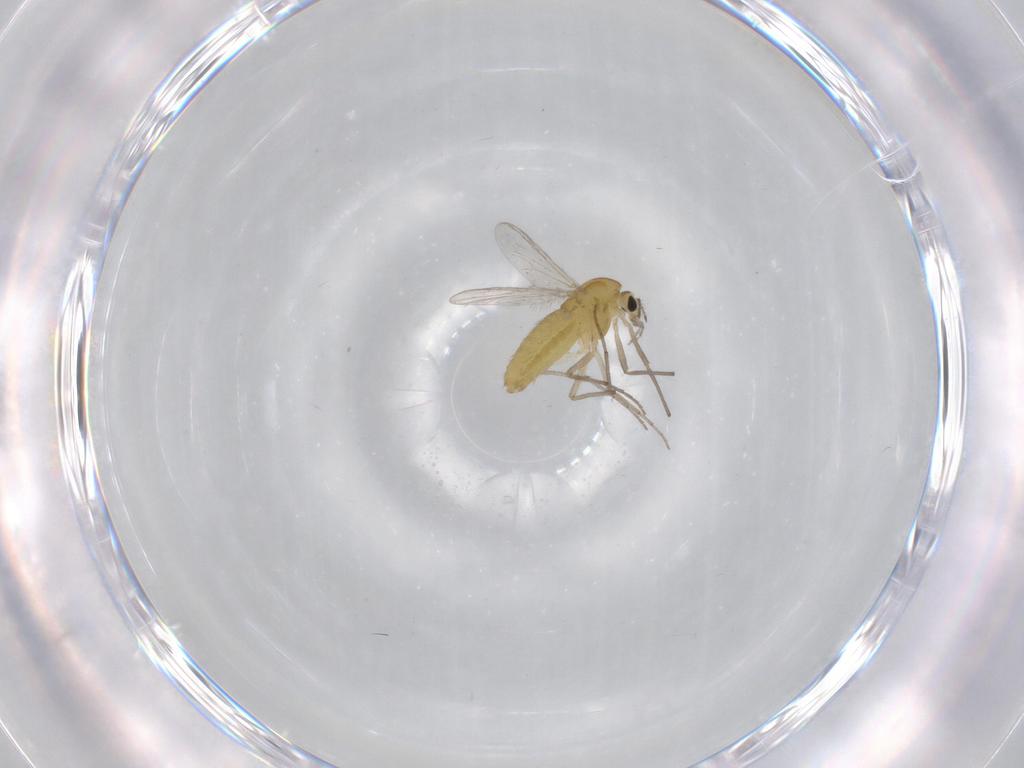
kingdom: Animalia
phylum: Arthropoda
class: Insecta
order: Diptera
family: Chironomidae
